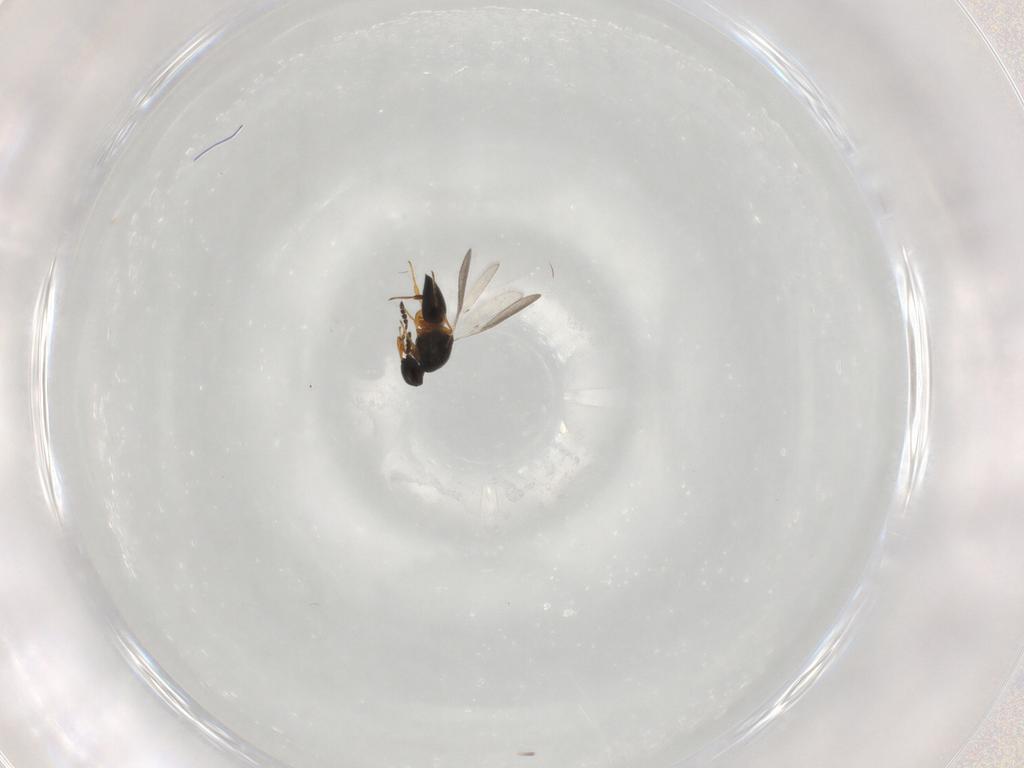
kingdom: Animalia
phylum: Arthropoda
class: Insecta
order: Hymenoptera
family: Platygastridae
